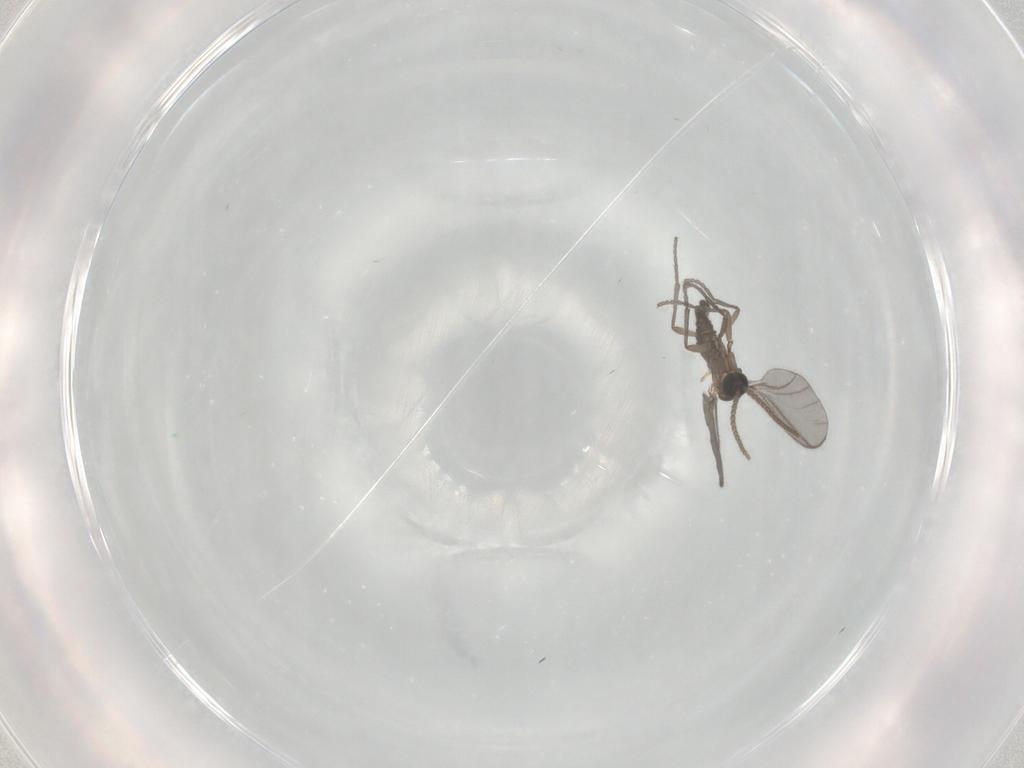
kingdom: Animalia
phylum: Arthropoda
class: Insecta
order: Diptera
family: Sciaridae
